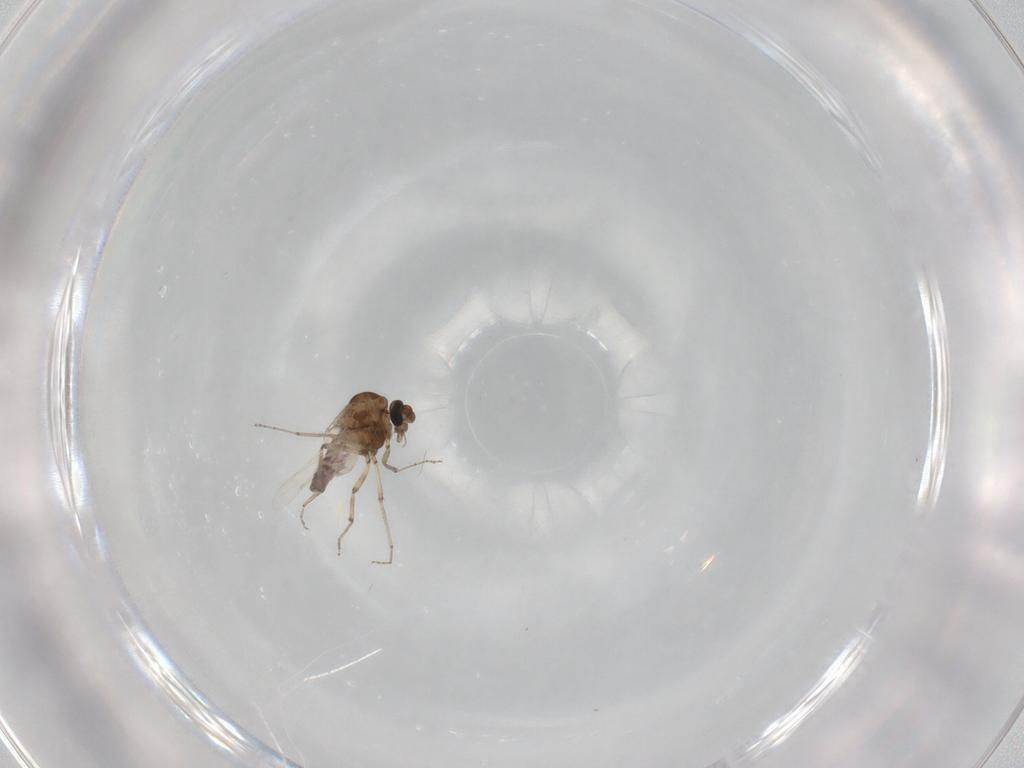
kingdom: Animalia
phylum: Arthropoda
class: Insecta
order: Diptera
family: Ceratopogonidae
